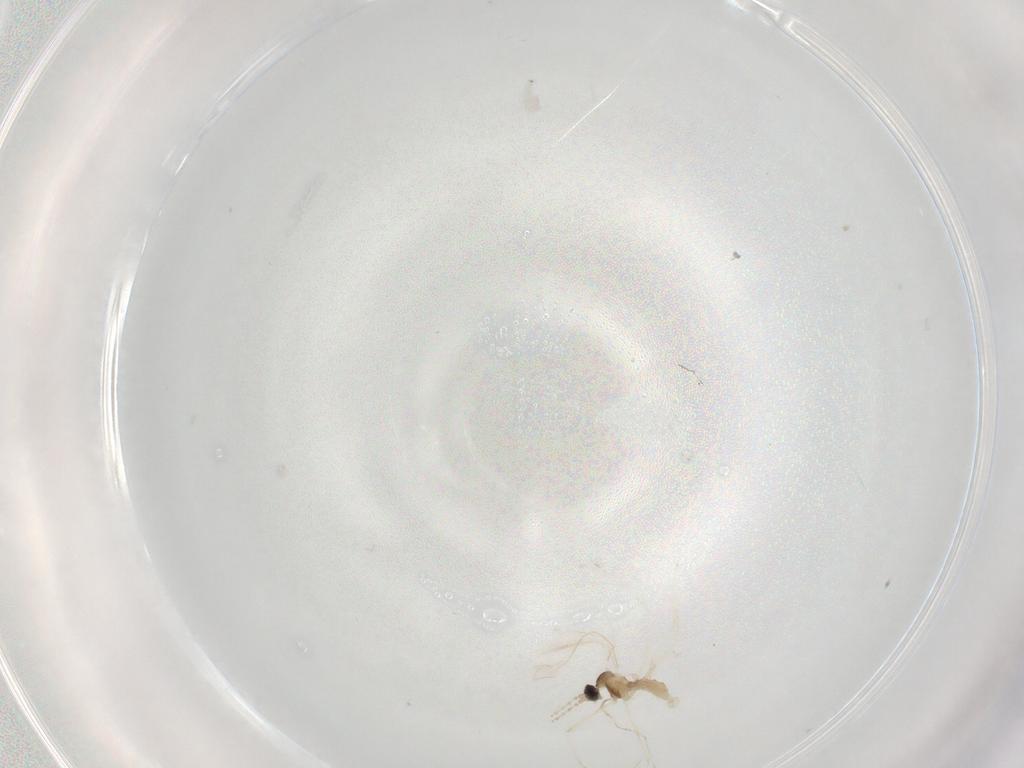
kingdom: Animalia
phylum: Arthropoda
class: Insecta
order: Diptera
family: Cecidomyiidae
